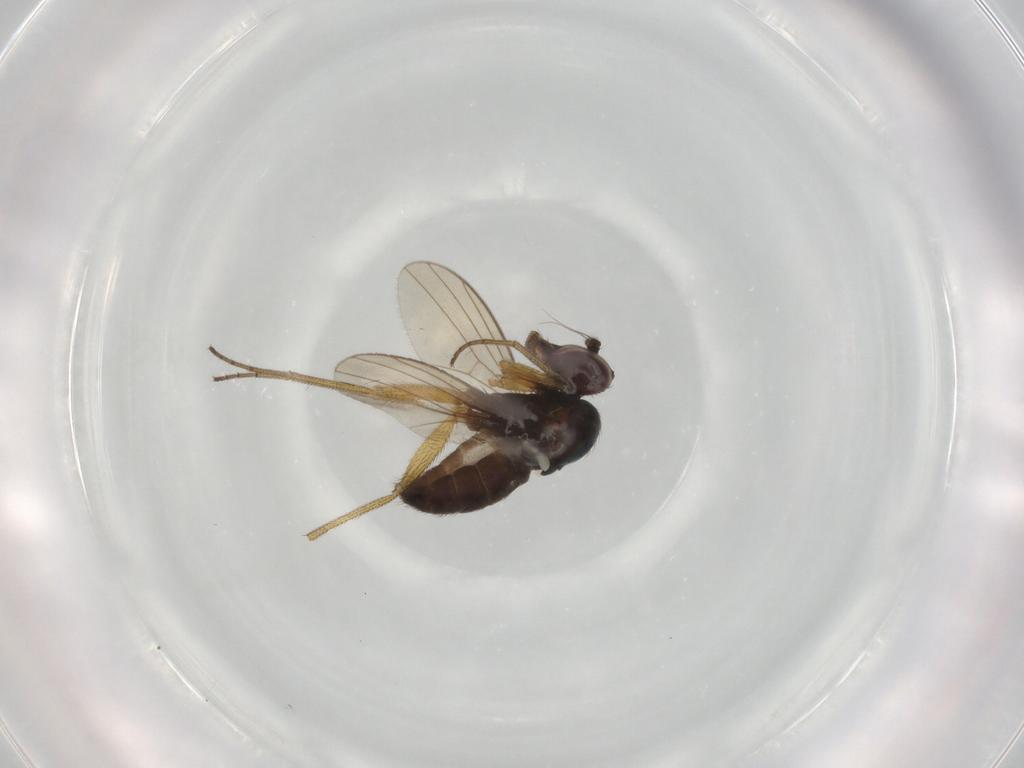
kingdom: Animalia
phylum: Arthropoda
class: Insecta
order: Diptera
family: Dolichopodidae
